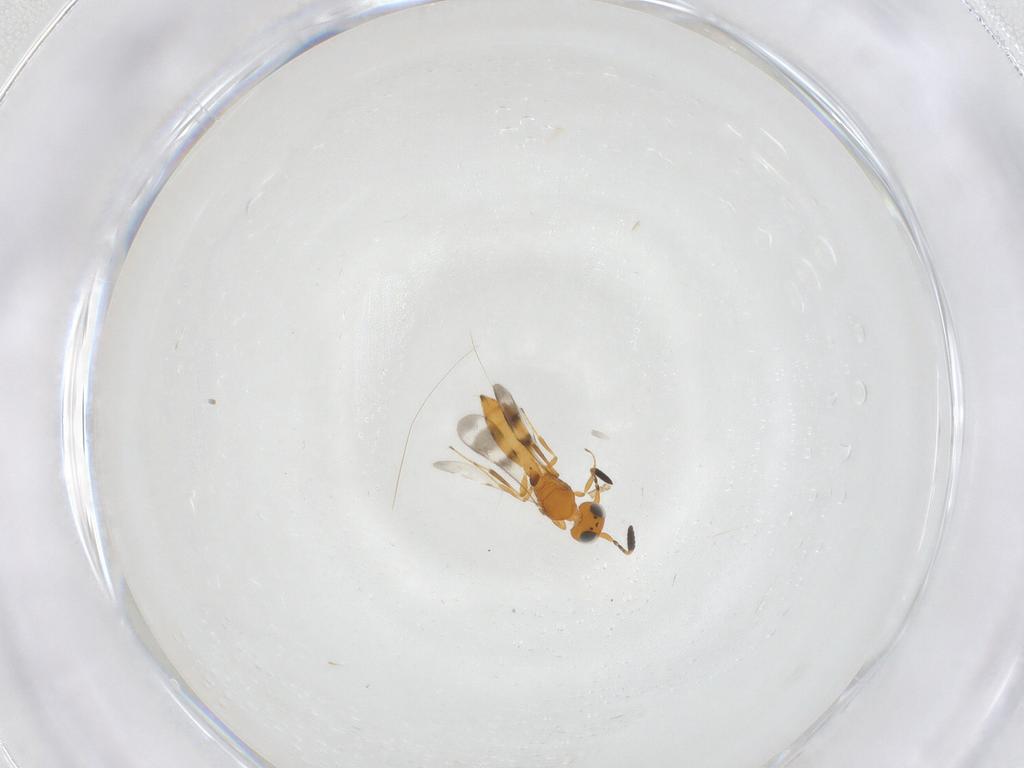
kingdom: Animalia
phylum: Arthropoda
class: Insecta
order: Hymenoptera
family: Scelionidae
